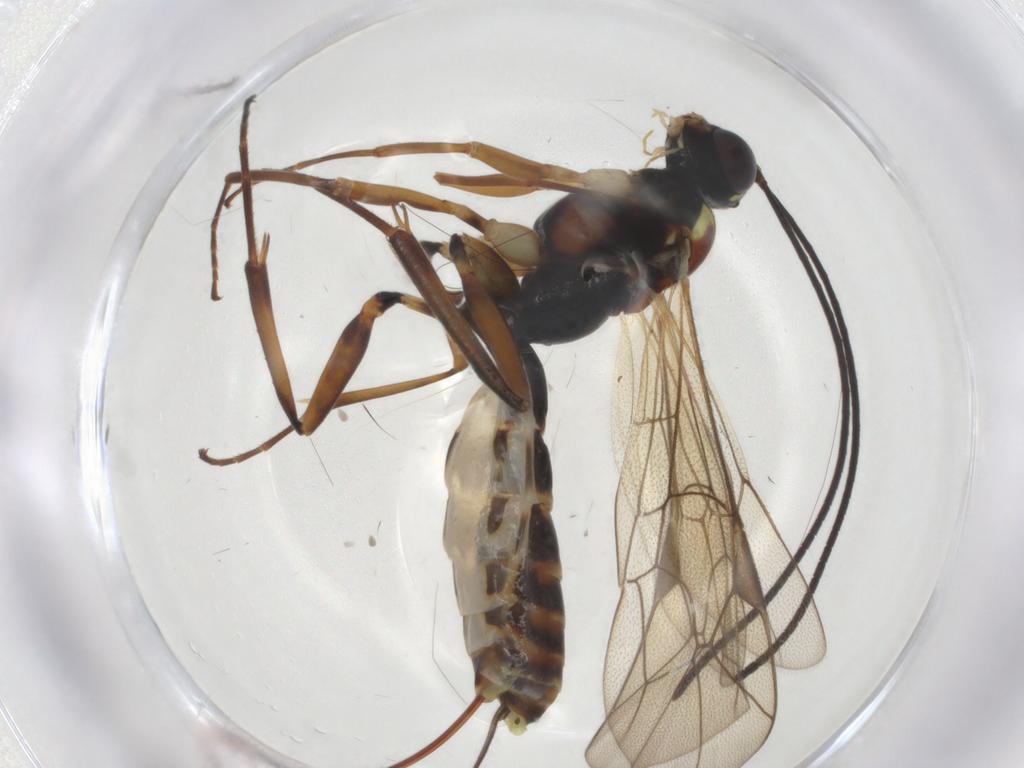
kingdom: Animalia
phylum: Arthropoda
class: Insecta
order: Hymenoptera
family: Ichneumonidae
